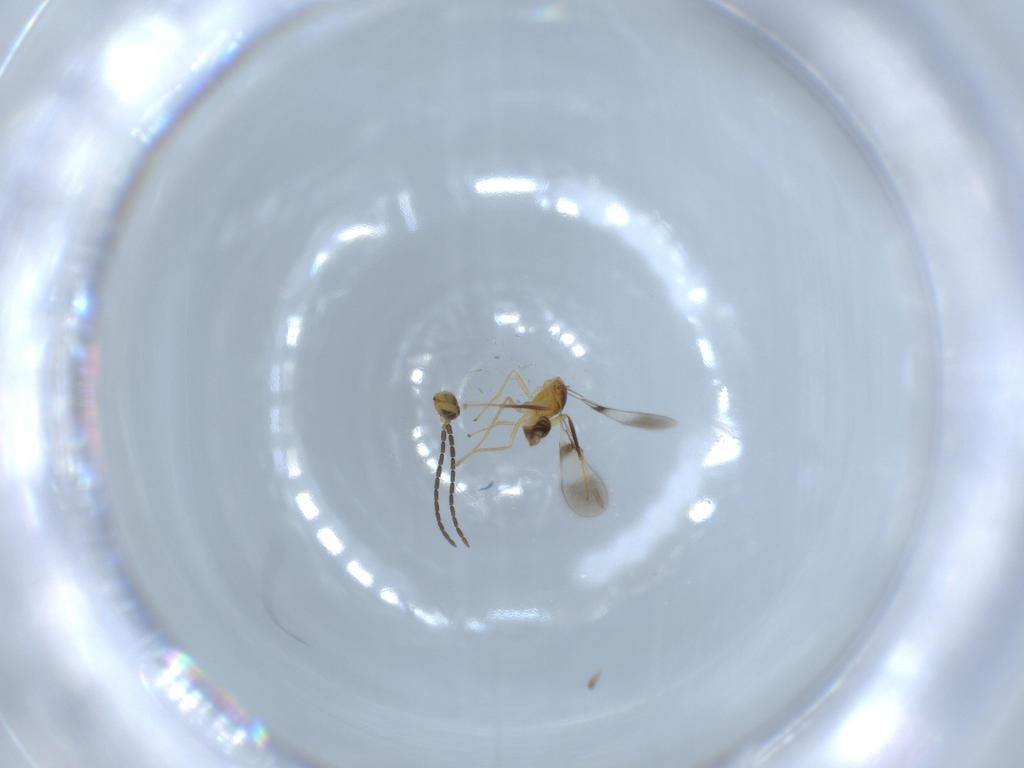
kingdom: Animalia
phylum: Arthropoda
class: Insecta
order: Hymenoptera
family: Mymaridae
